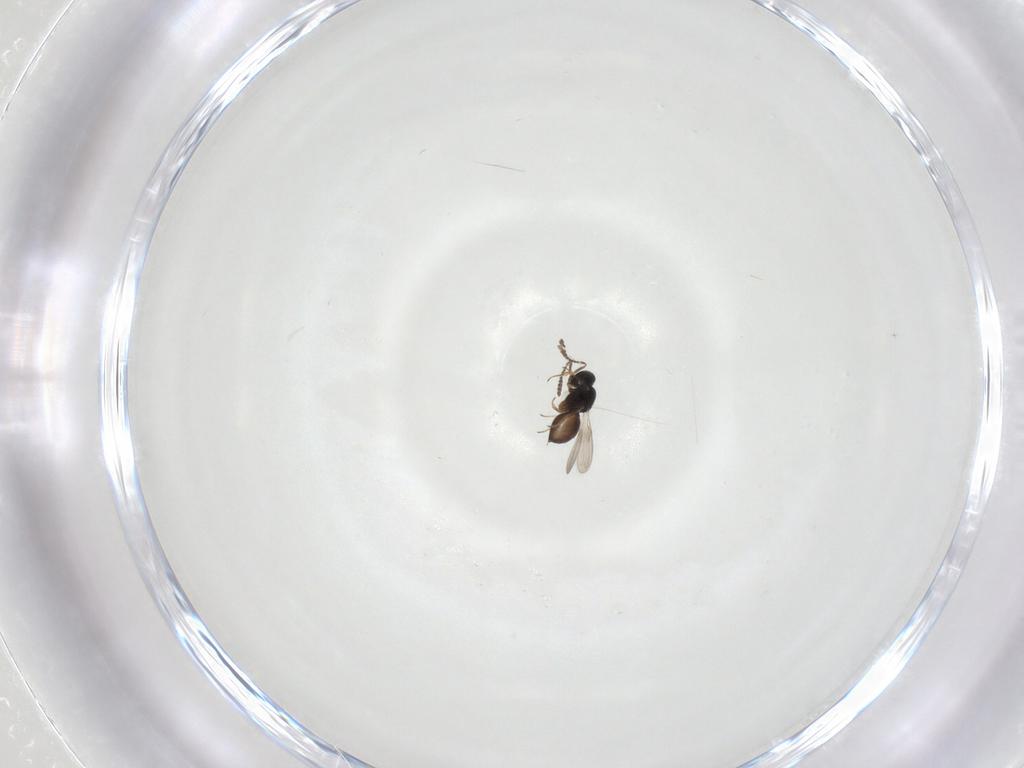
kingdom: Animalia
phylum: Arthropoda
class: Insecta
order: Hymenoptera
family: Scelionidae
